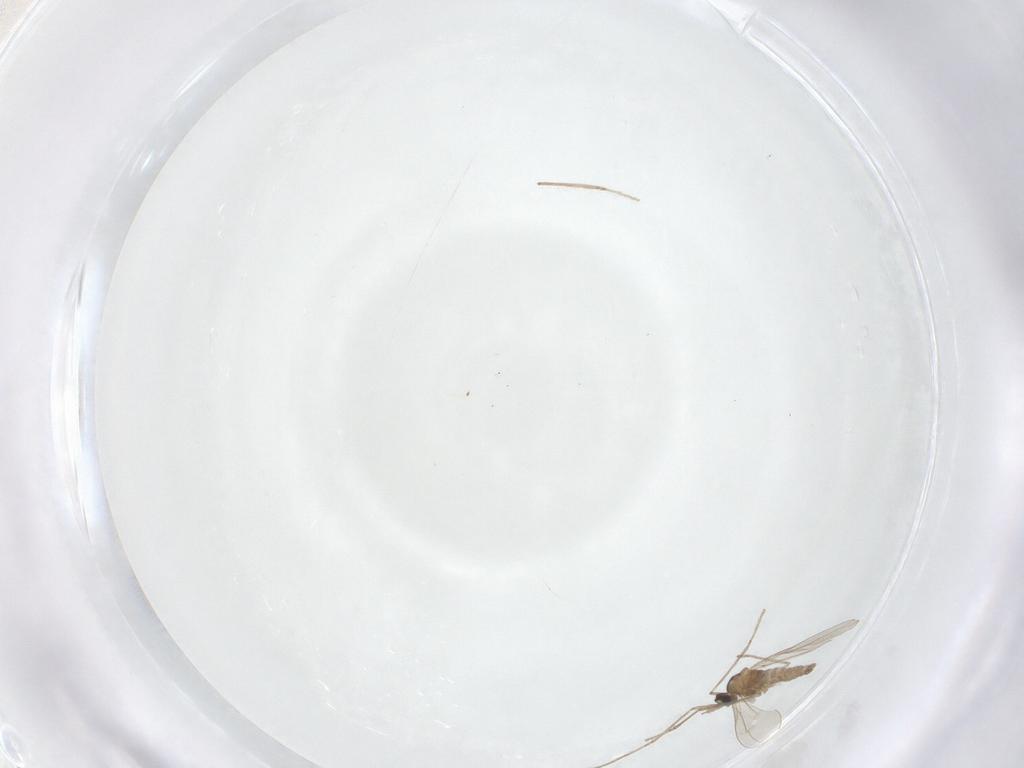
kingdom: Animalia
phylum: Arthropoda
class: Insecta
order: Diptera
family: Cecidomyiidae
